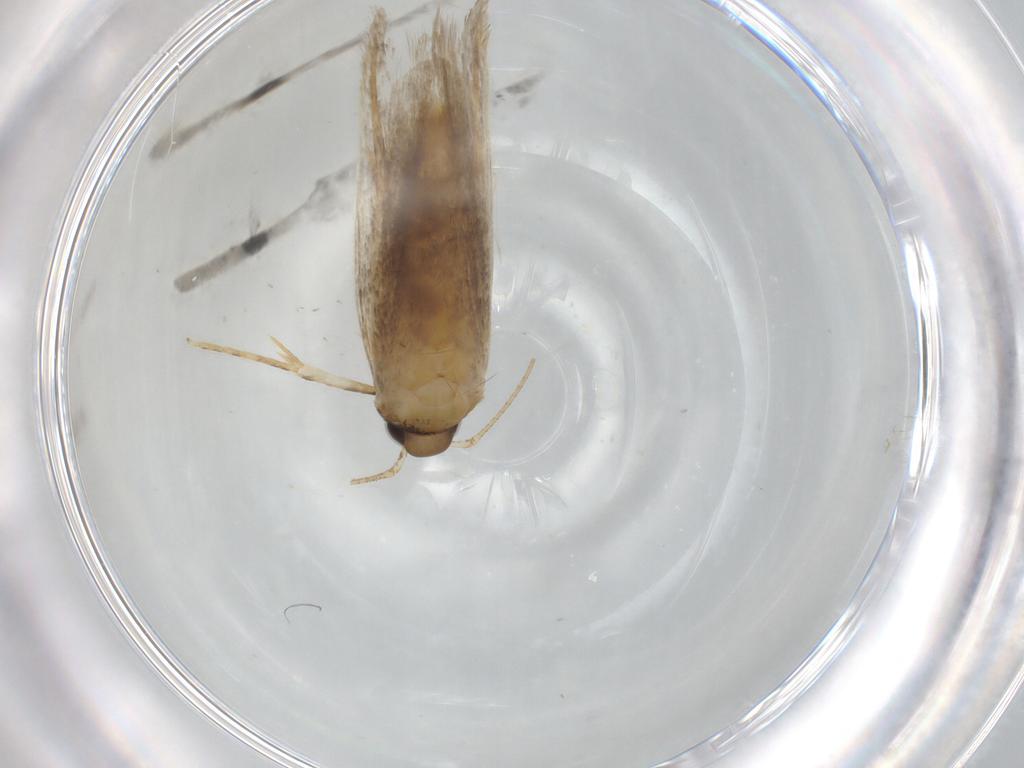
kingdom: Animalia
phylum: Arthropoda
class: Insecta
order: Lepidoptera
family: Autostichidae
